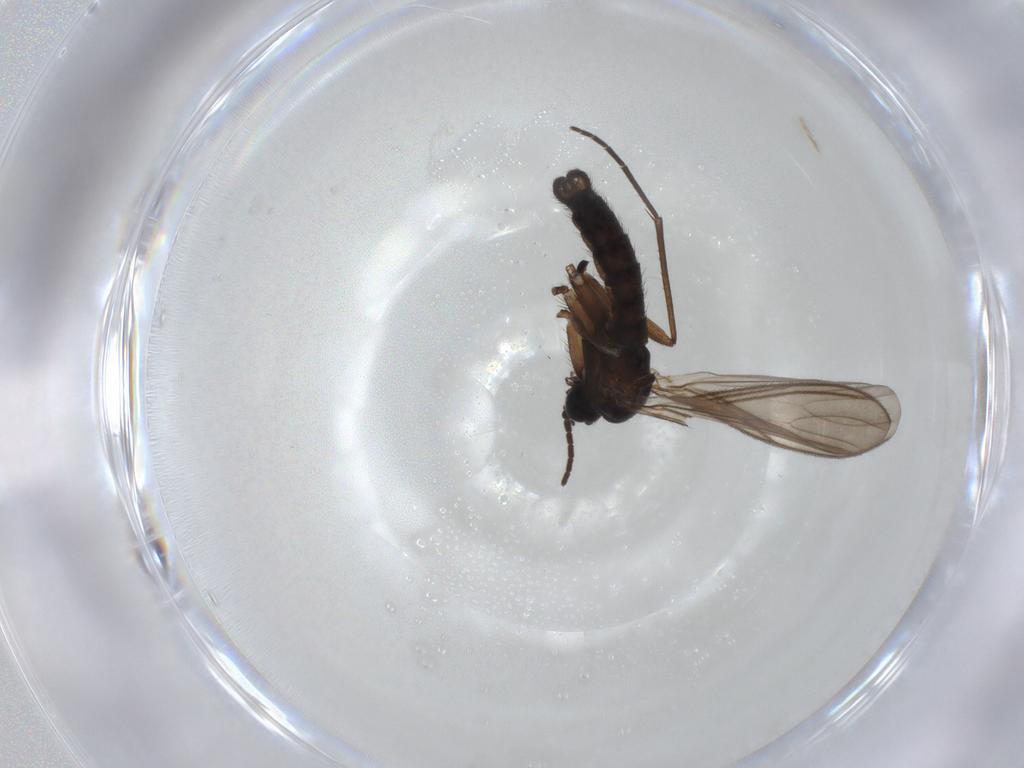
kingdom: Animalia
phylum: Arthropoda
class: Insecta
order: Diptera
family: Sciaridae
